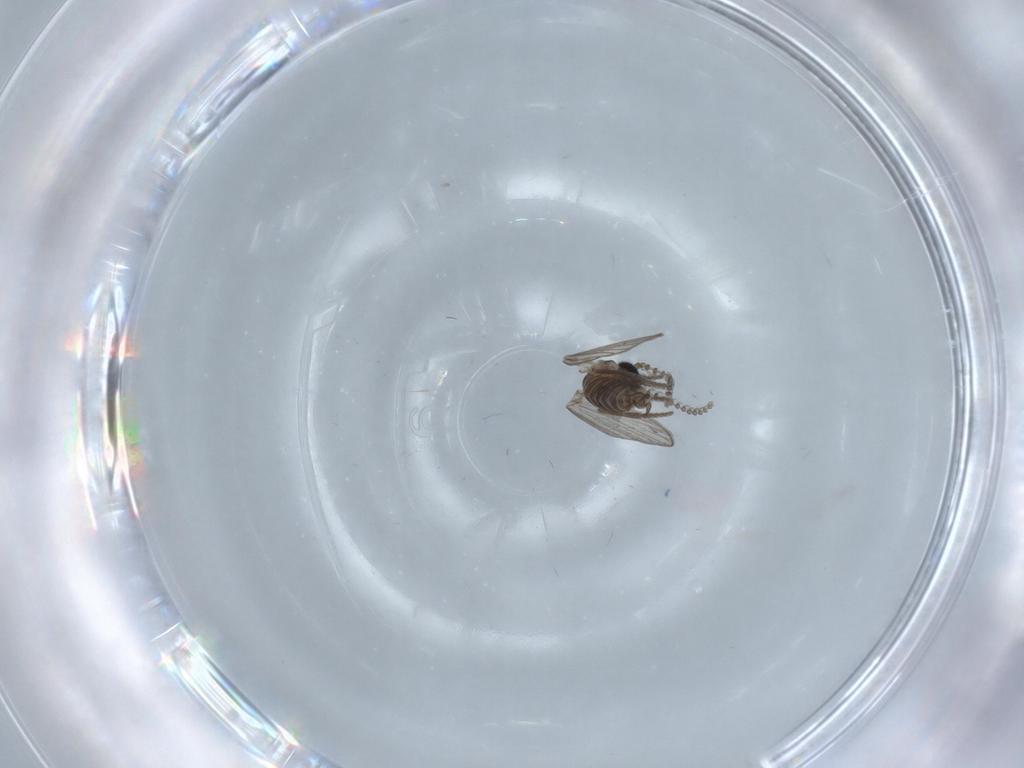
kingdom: Animalia
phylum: Arthropoda
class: Insecta
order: Diptera
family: Psychodidae
